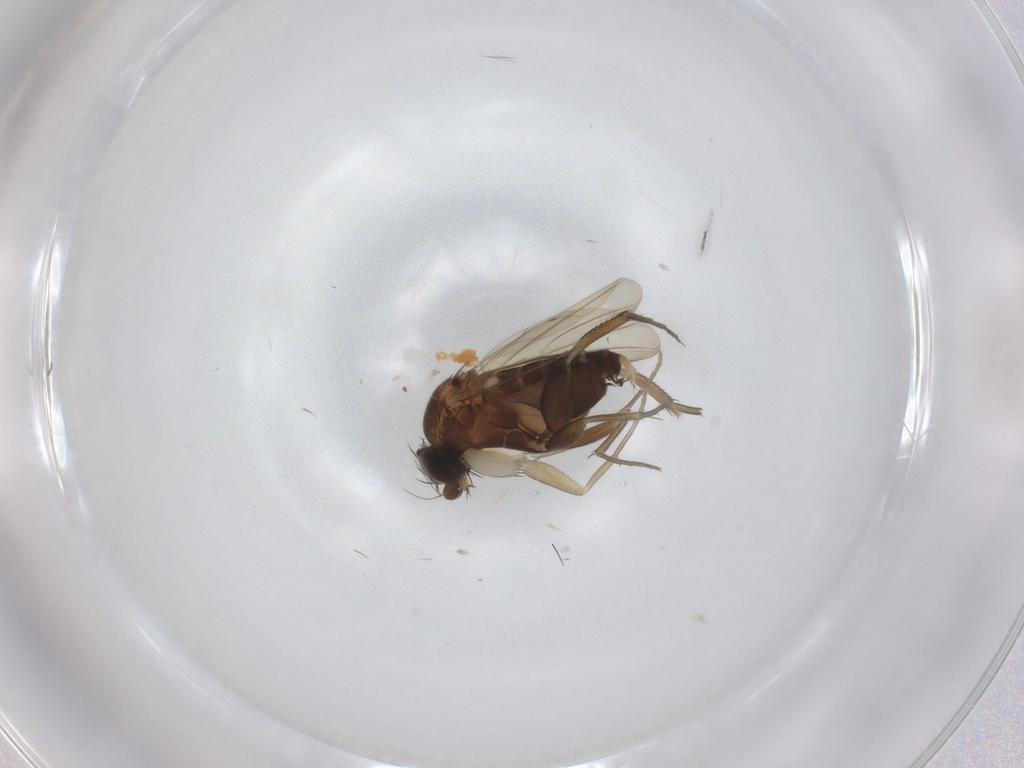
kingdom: Animalia
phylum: Arthropoda
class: Insecta
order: Diptera
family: Phoridae
